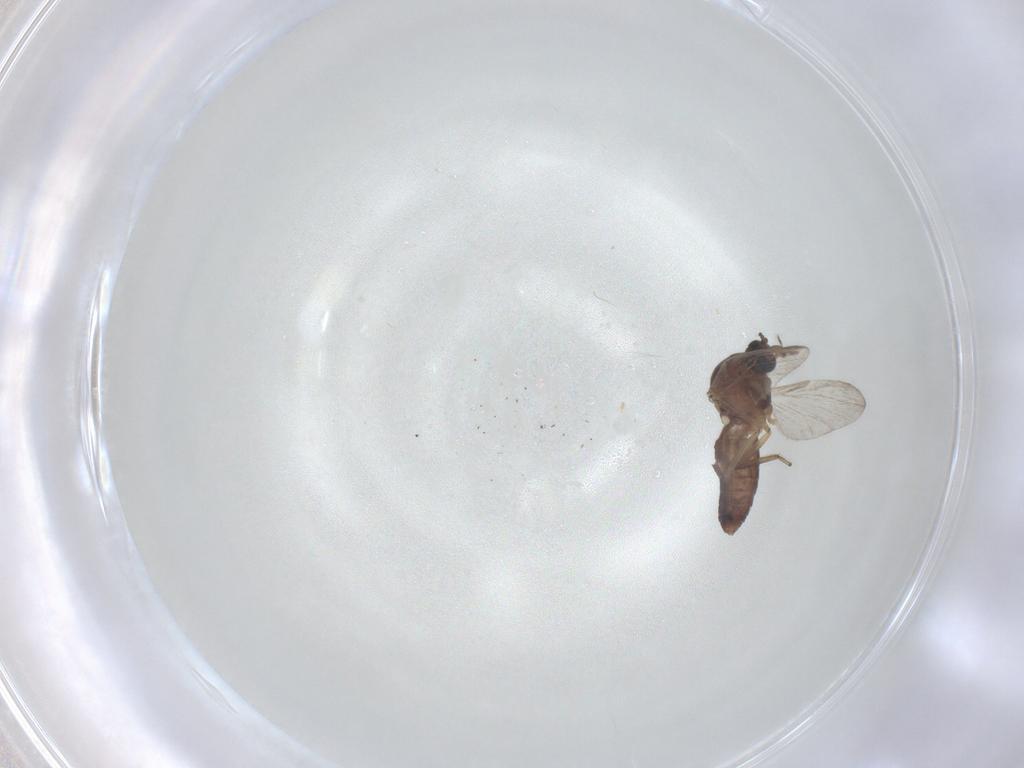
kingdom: Animalia
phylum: Arthropoda
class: Insecta
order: Diptera
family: Ceratopogonidae
